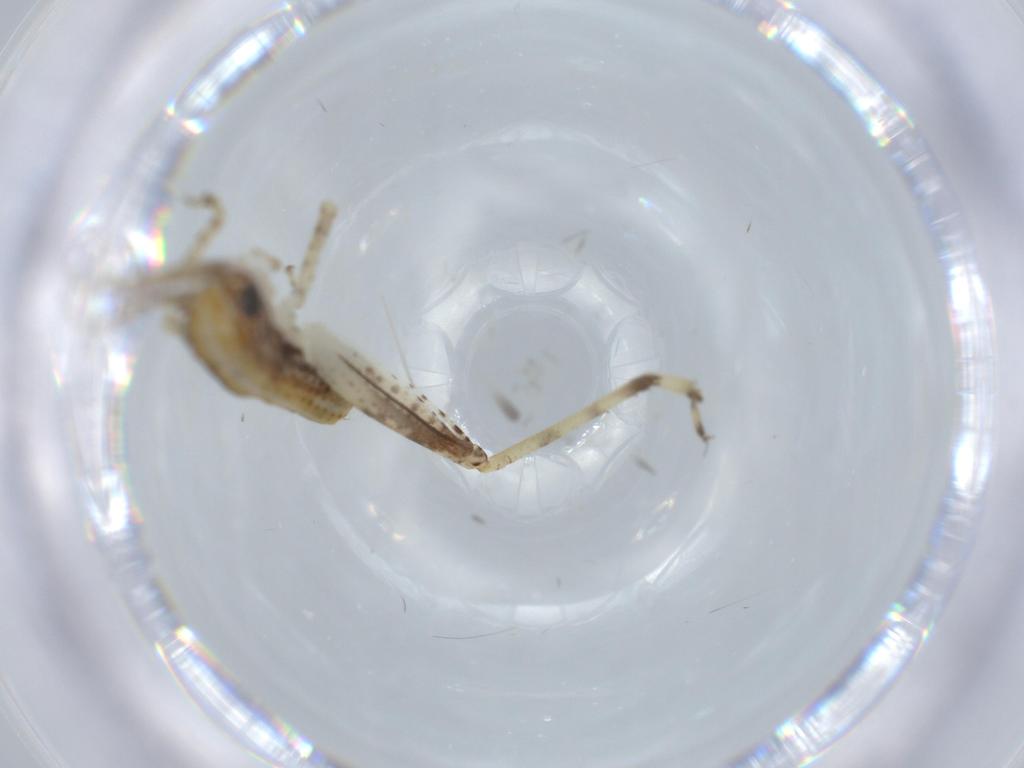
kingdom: Animalia
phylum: Arthropoda
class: Insecta
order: Orthoptera
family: Gryllidae
